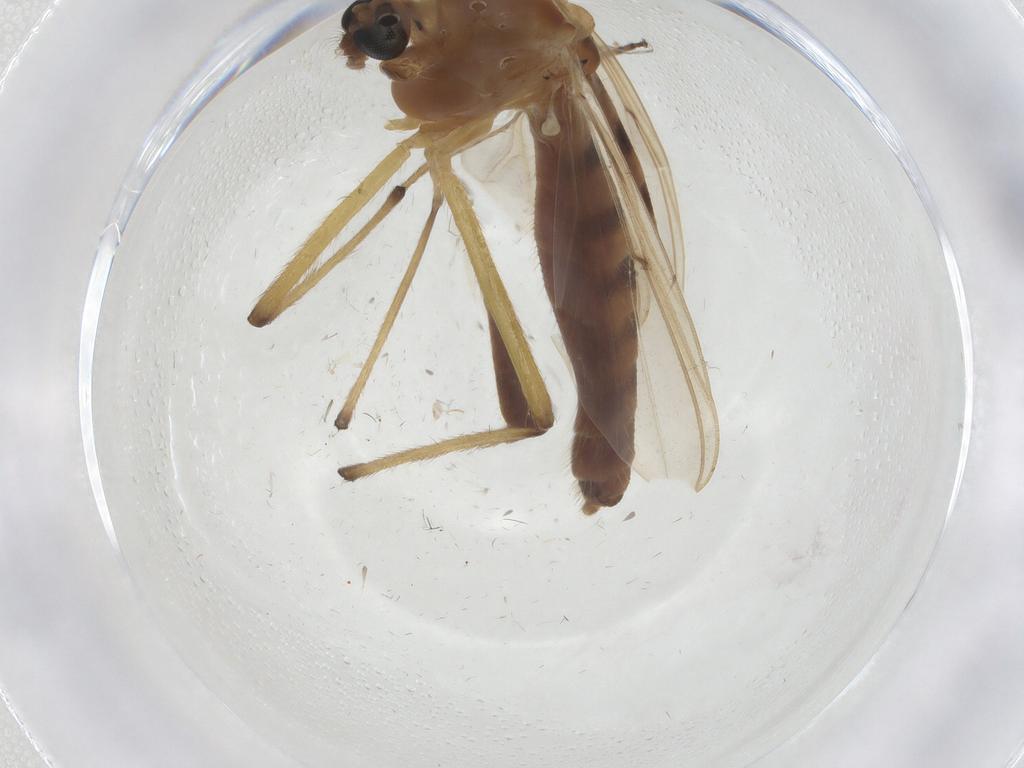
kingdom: Animalia
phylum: Arthropoda
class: Insecta
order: Diptera
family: Chironomidae
